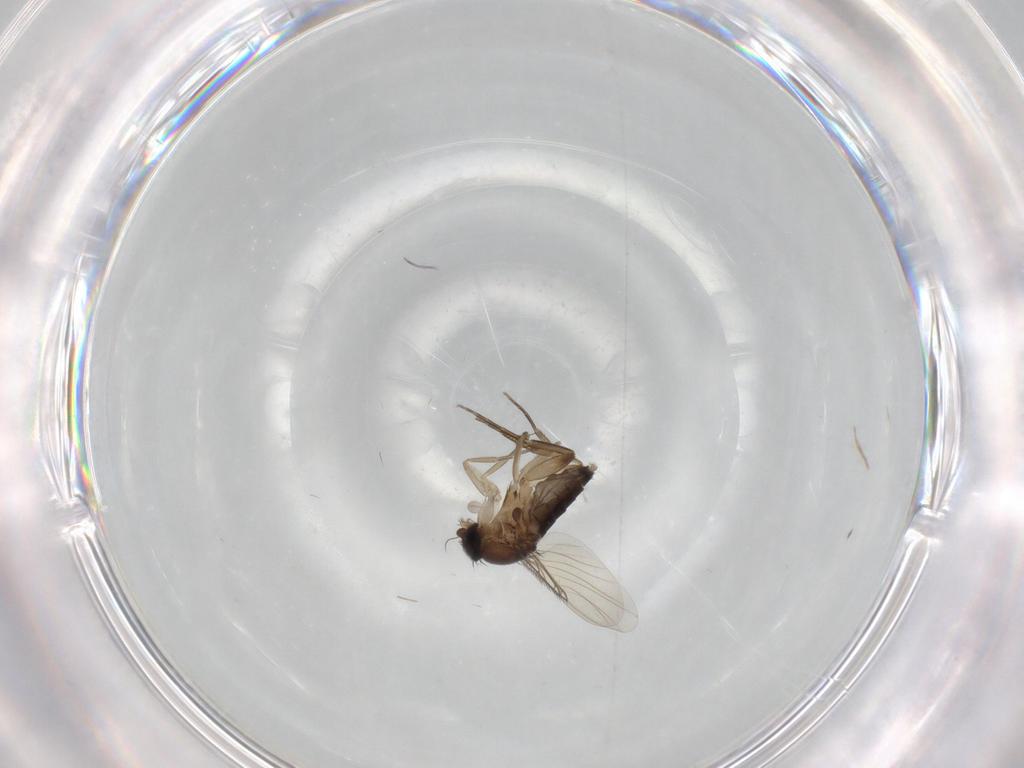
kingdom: Animalia
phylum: Arthropoda
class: Insecta
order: Diptera
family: Phoridae
